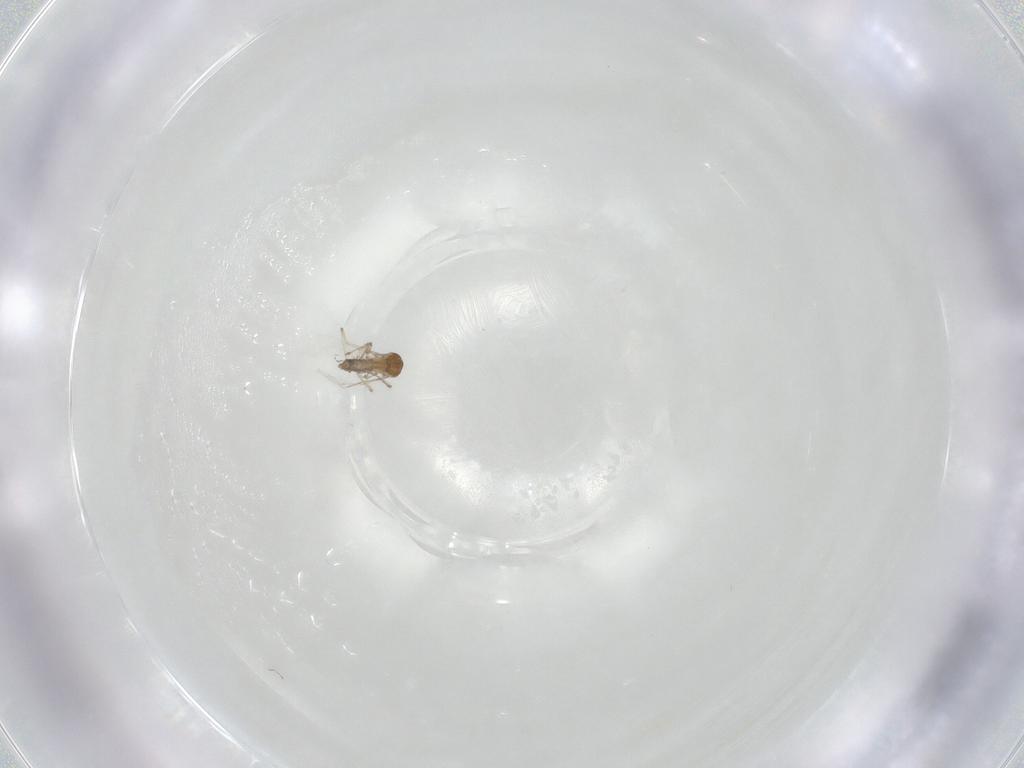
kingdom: Animalia
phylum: Arthropoda
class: Insecta
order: Diptera
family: Ceratopogonidae
